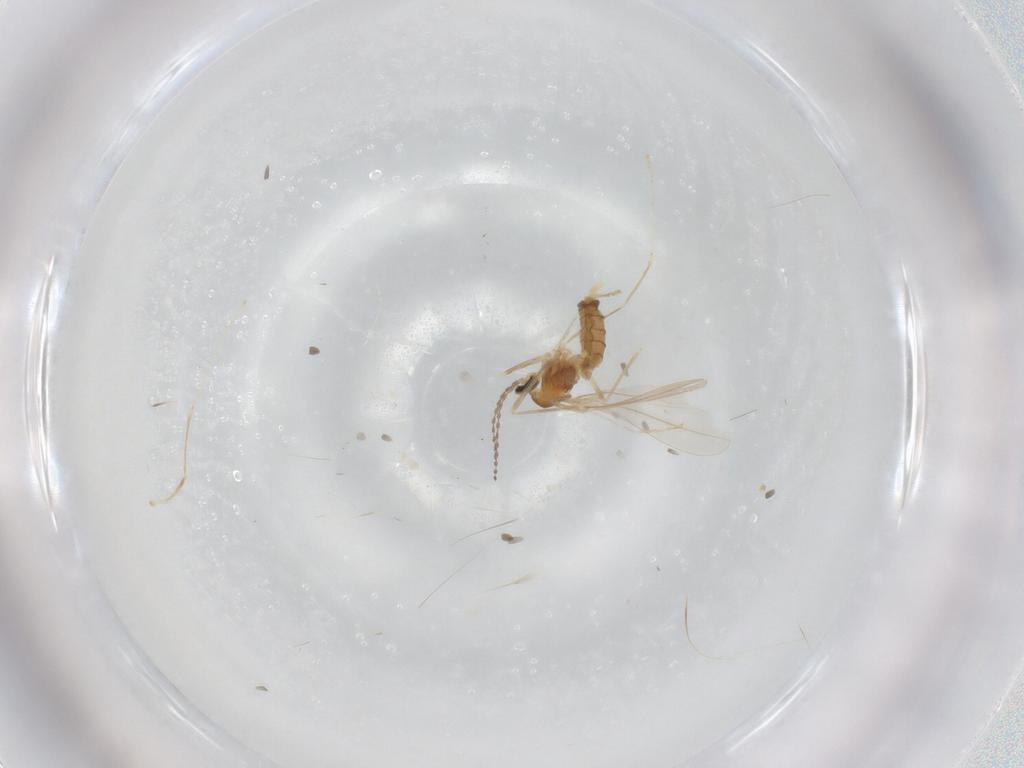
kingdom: Animalia
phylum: Arthropoda
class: Insecta
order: Diptera
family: Cecidomyiidae
